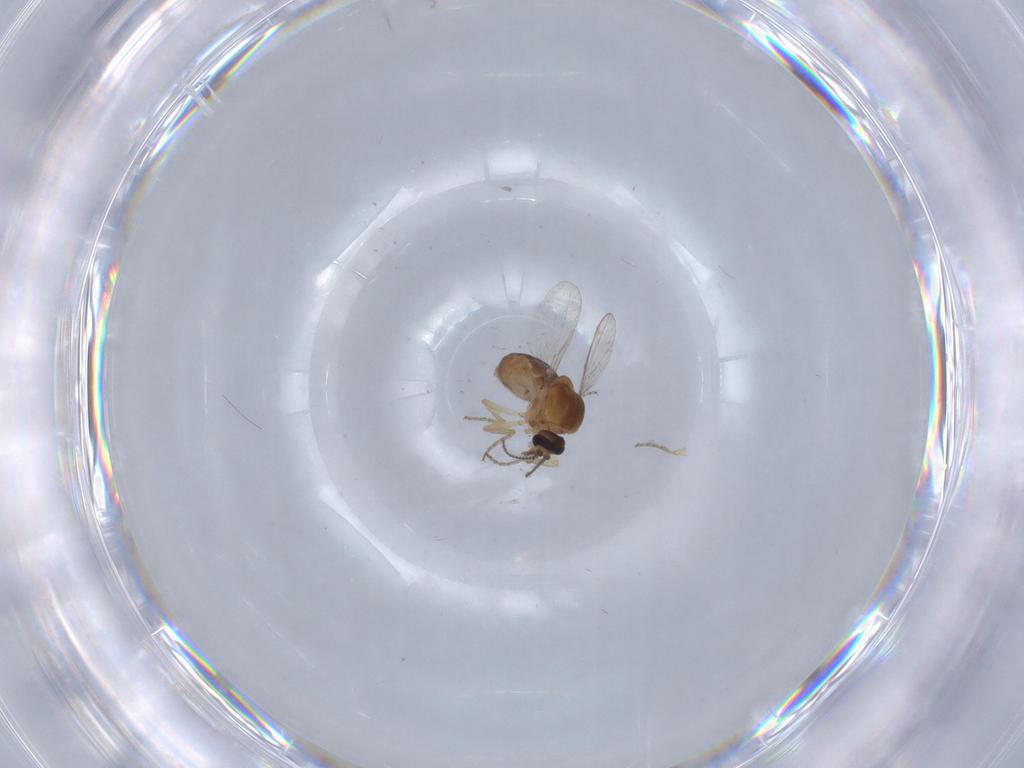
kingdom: Animalia
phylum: Arthropoda
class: Insecta
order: Diptera
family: Ceratopogonidae
